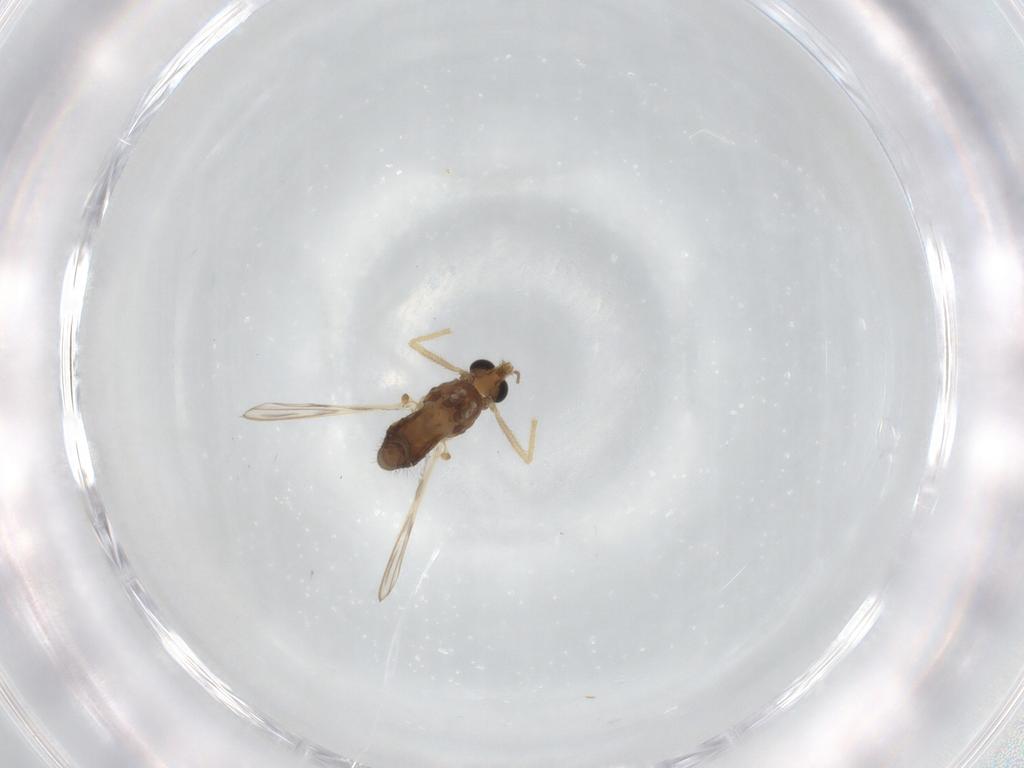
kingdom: Animalia
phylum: Arthropoda
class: Insecta
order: Diptera
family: Chironomidae
